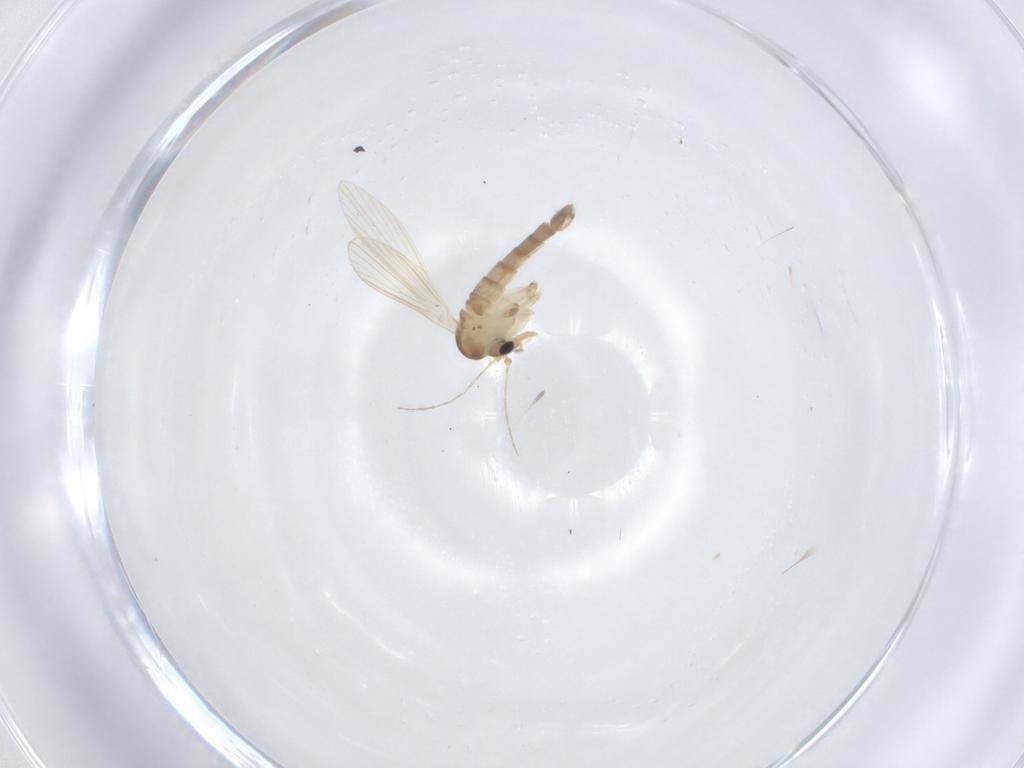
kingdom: Animalia
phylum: Arthropoda
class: Insecta
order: Diptera
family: Psychodidae
